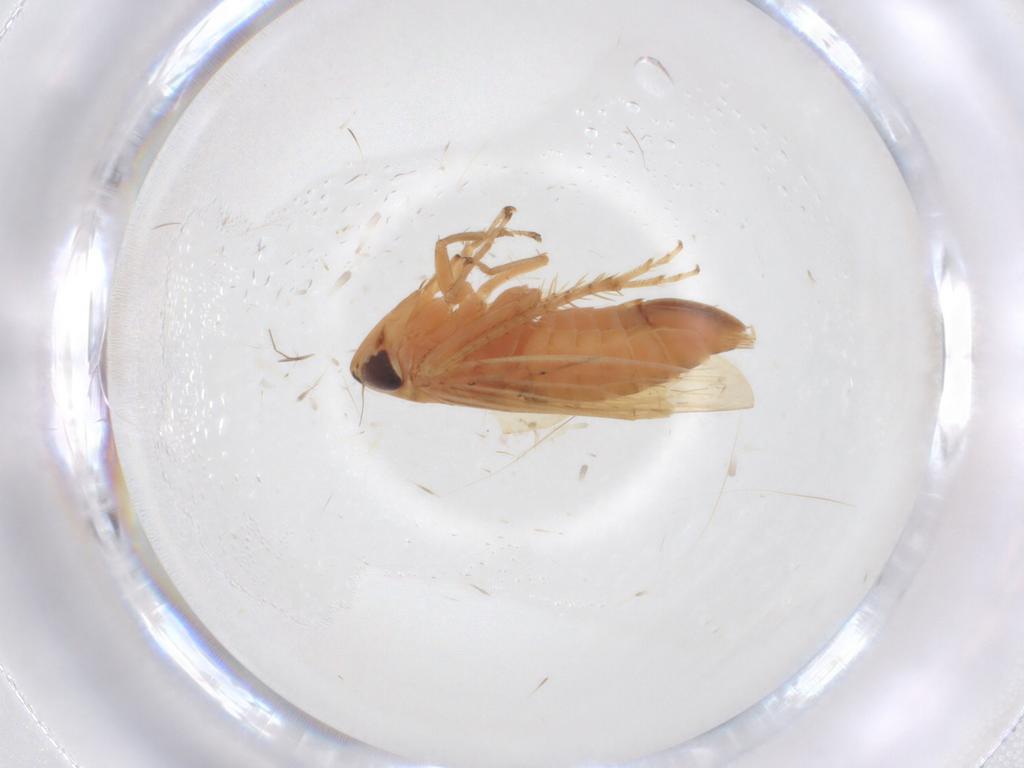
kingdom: Animalia
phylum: Arthropoda
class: Insecta
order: Hemiptera
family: Cicadellidae
